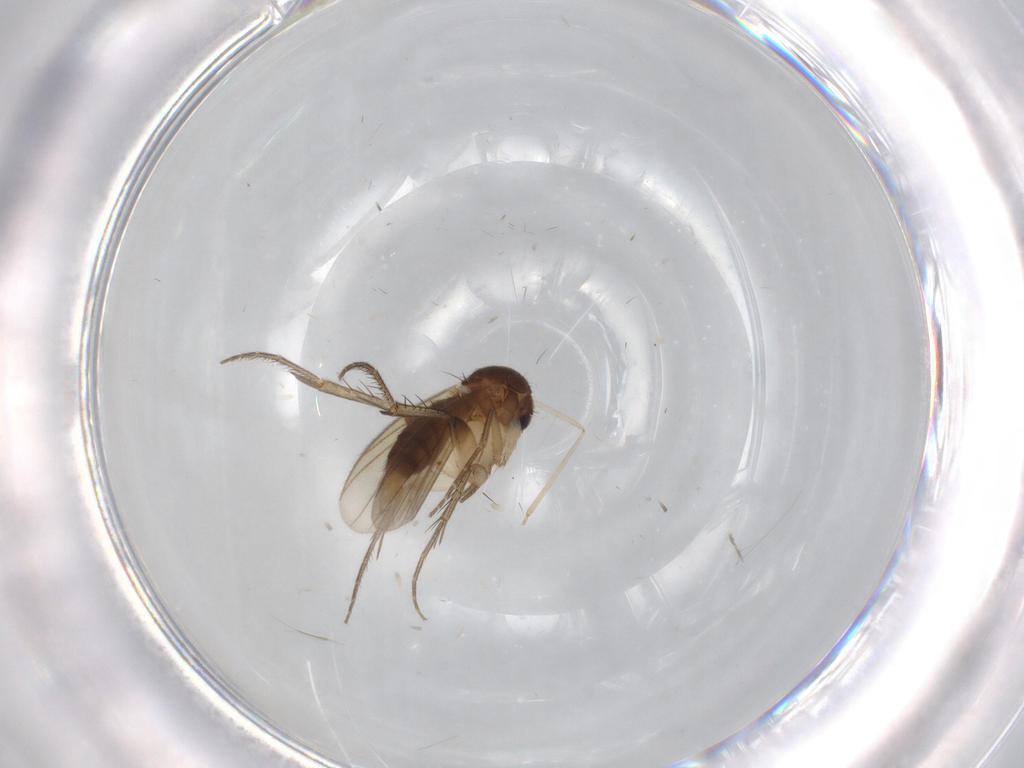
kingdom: Animalia
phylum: Arthropoda
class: Insecta
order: Diptera
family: Cecidomyiidae
